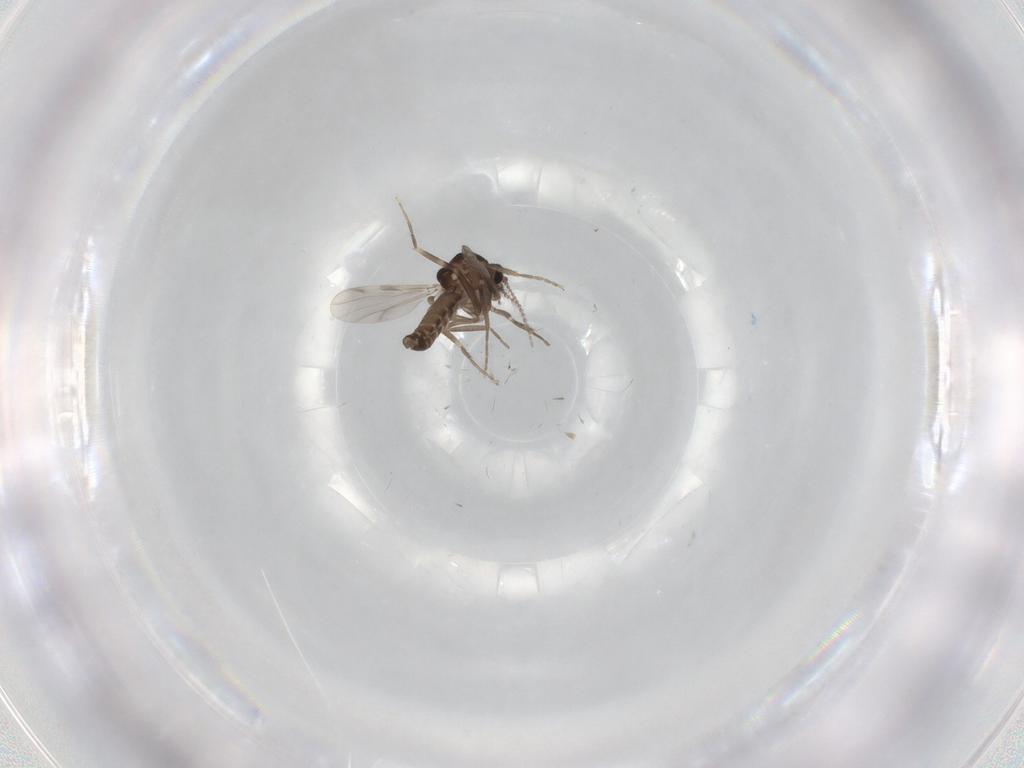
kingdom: Animalia
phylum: Arthropoda
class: Insecta
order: Diptera
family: Ceratopogonidae
